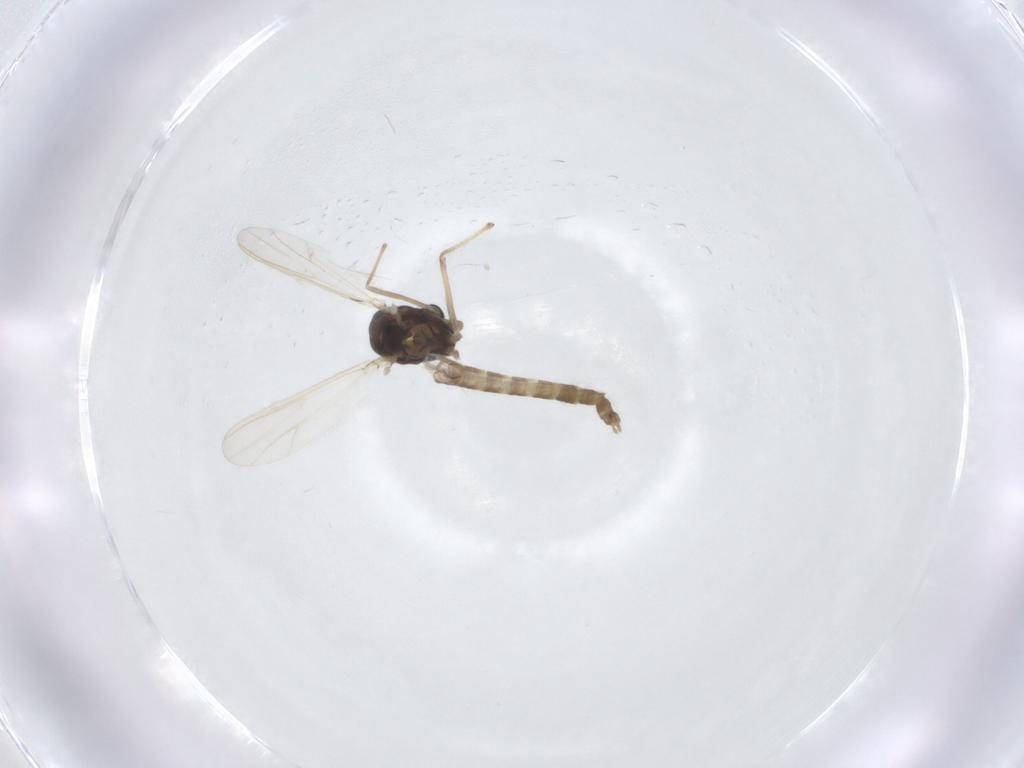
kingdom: Animalia
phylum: Arthropoda
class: Insecta
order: Diptera
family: Chironomidae
